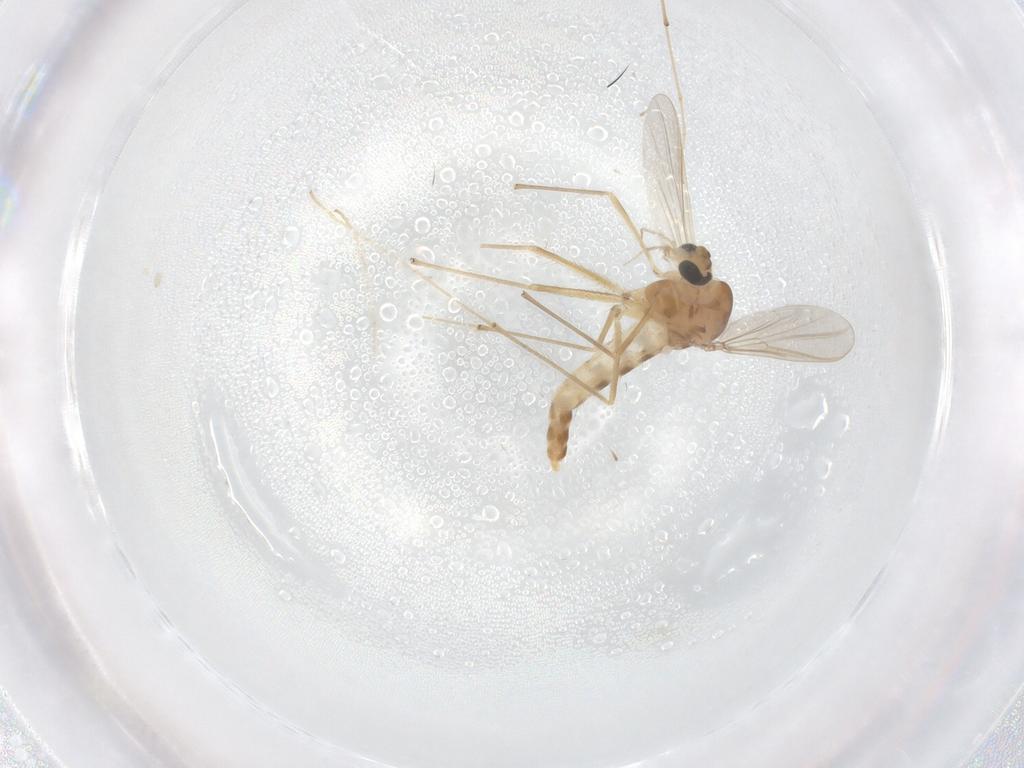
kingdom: Animalia
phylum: Arthropoda
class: Insecta
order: Diptera
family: Chironomidae
